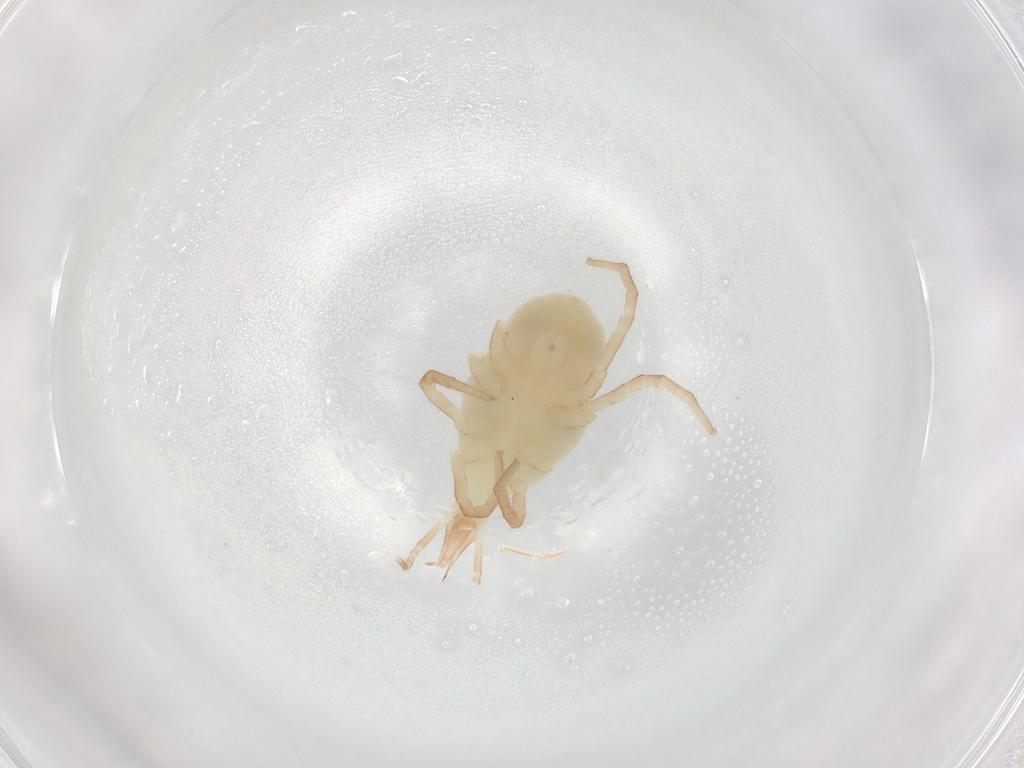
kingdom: Animalia
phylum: Arthropoda
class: Arachnida
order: Trombidiformes
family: Bdellidae
